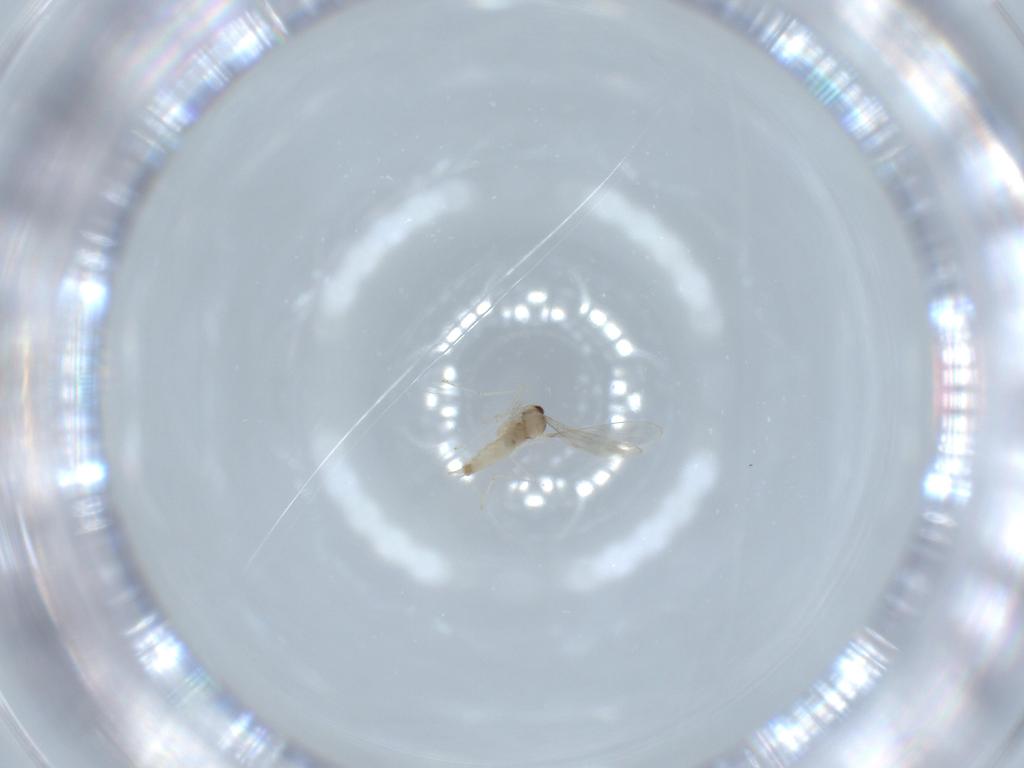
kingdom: Animalia
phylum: Arthropoda
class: Insecta
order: Diptera
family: Cecidomyiidae
